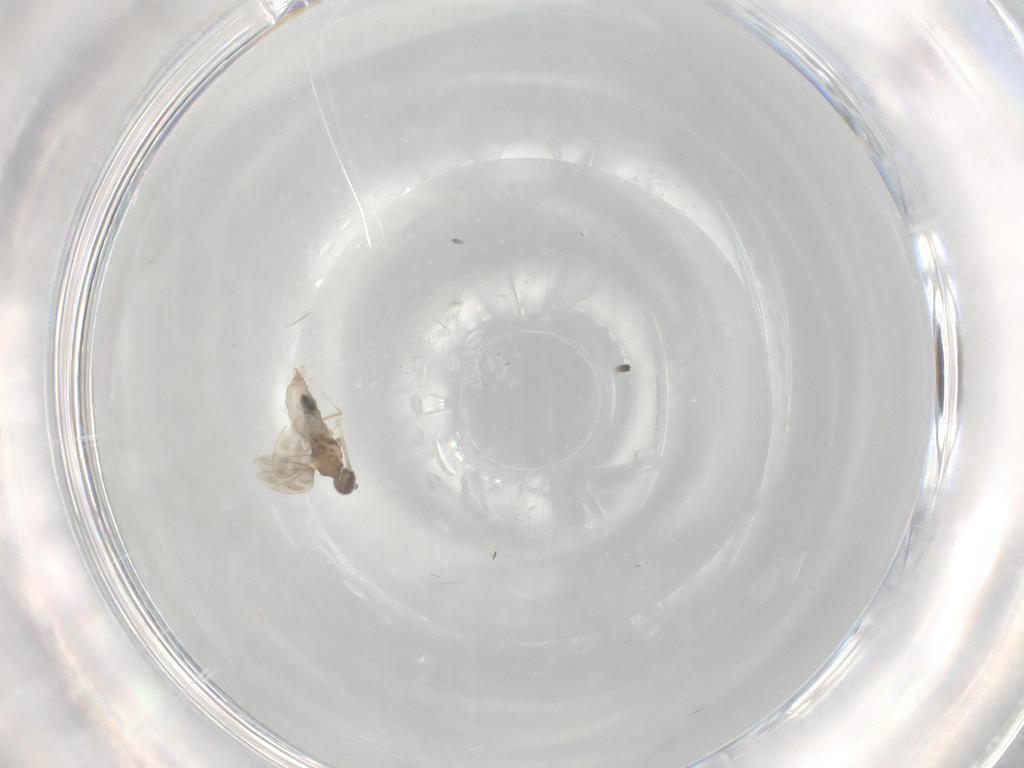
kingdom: Animalia
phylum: Arthropoda
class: Insecta
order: Diptera
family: Cecidomyiidae
